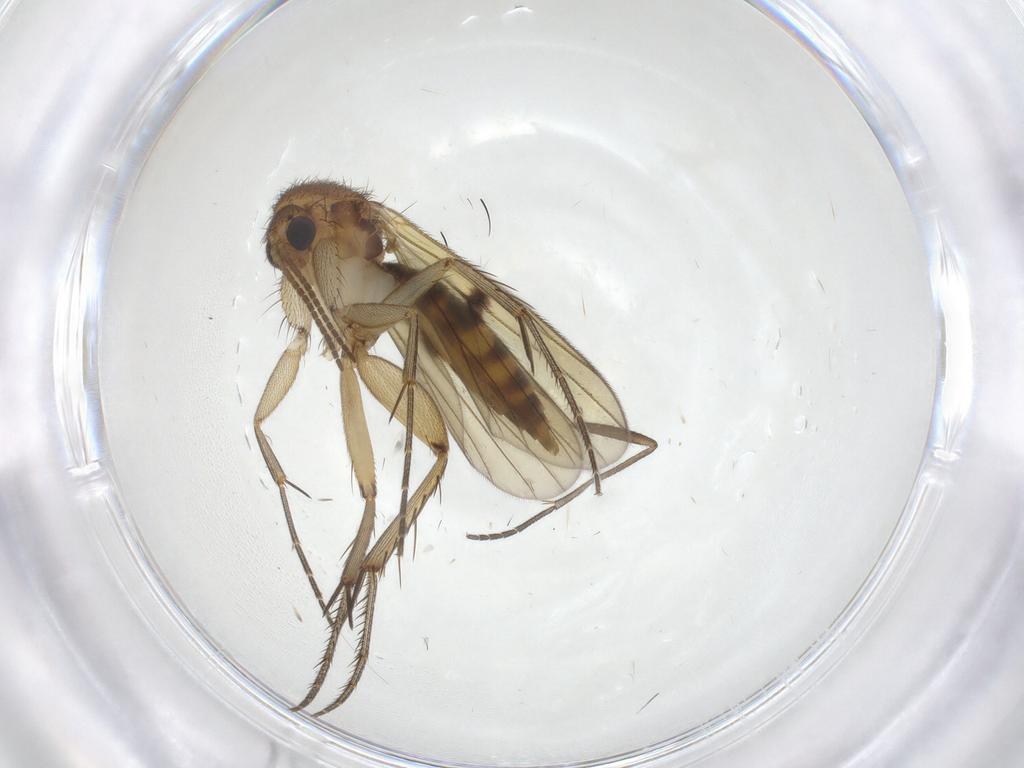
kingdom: Animalia
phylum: Arthropoda
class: Insecta
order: Diptera
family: Mycetophilidae
